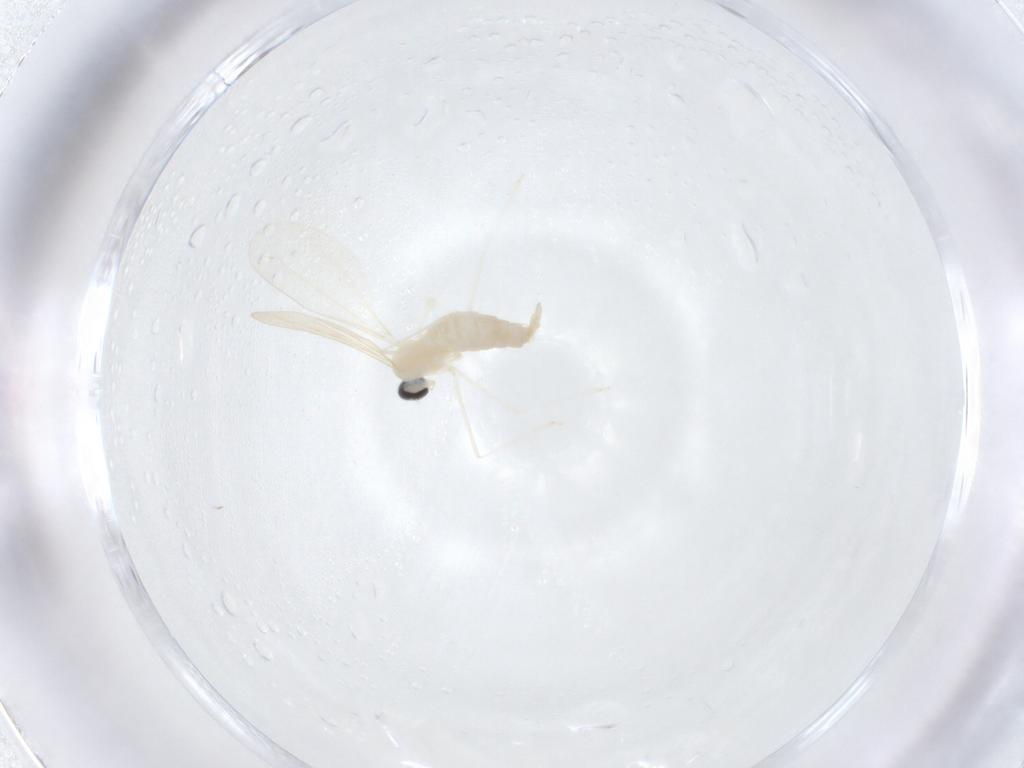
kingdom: Animalia
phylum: Arthropoda
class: Insecta
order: Diptera
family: Cecidomyiidae
